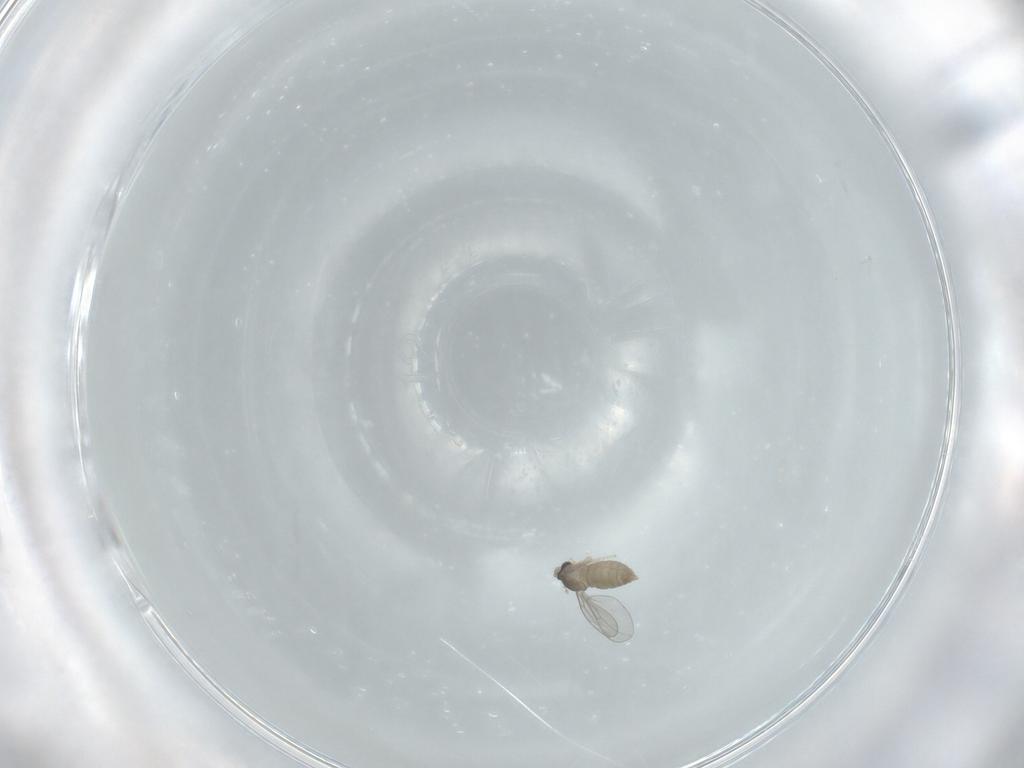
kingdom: Animalia
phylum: Arthropoda
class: Insecta
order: Diptera
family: Cecidomyiidae
